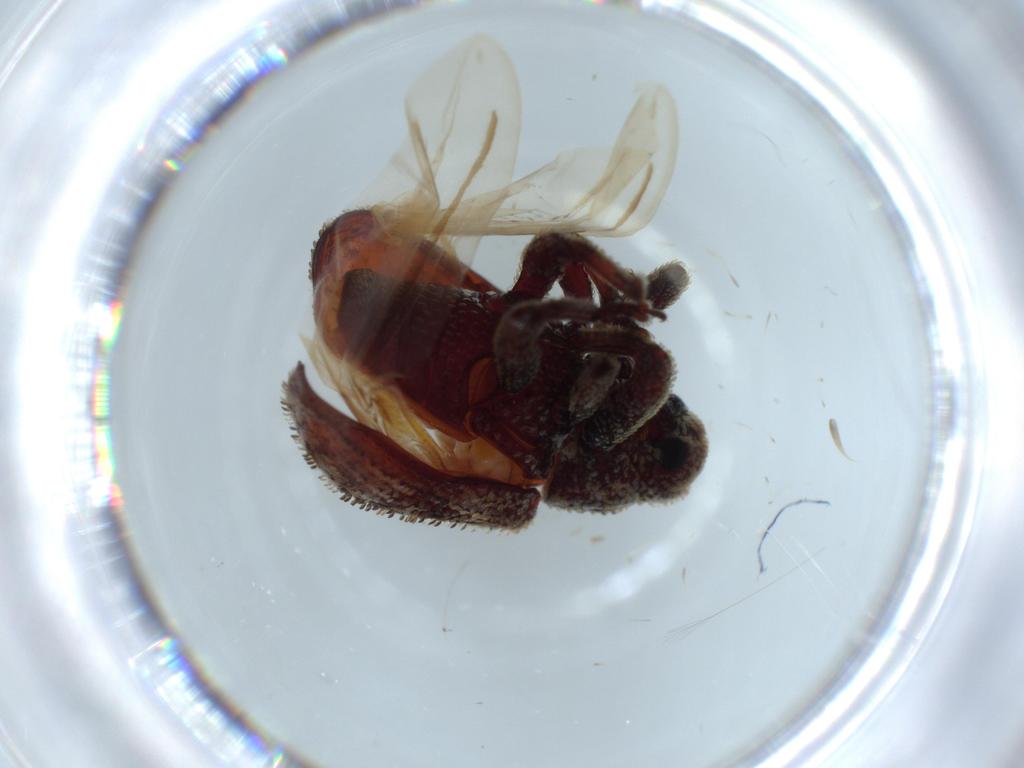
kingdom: Animalia
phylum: Arthropoda
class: Insecta
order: Coleoptera
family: Curculionidae
